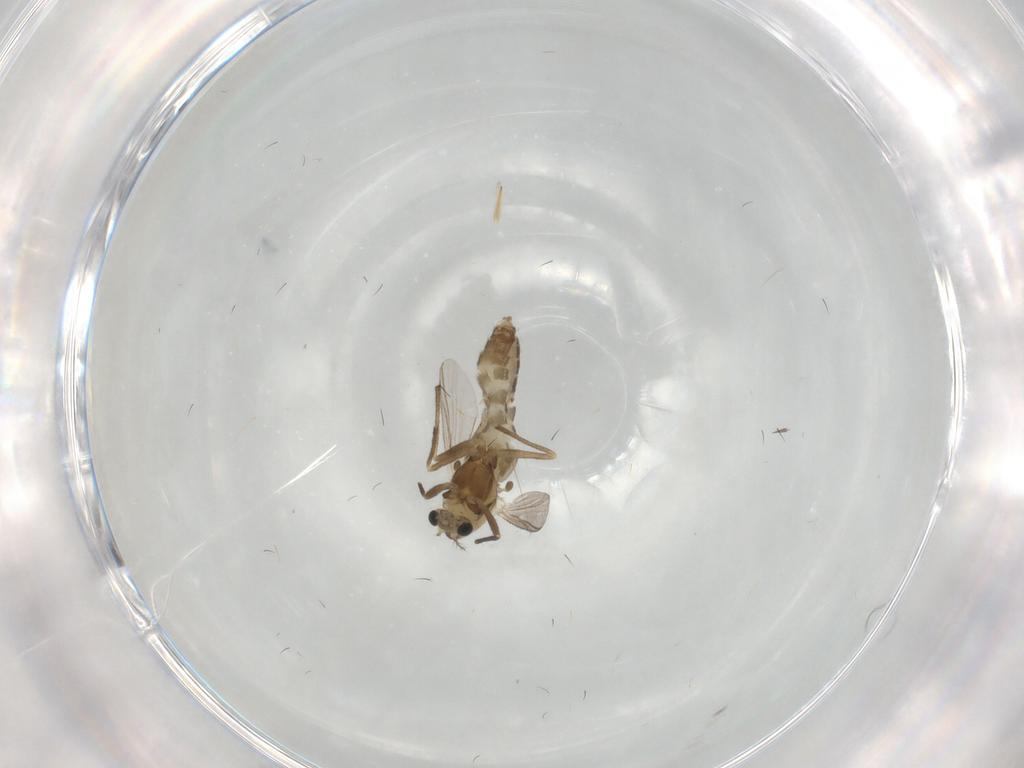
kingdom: Animalia
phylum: Arthropoda
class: Insecta
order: Diptera
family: Chironomidae
